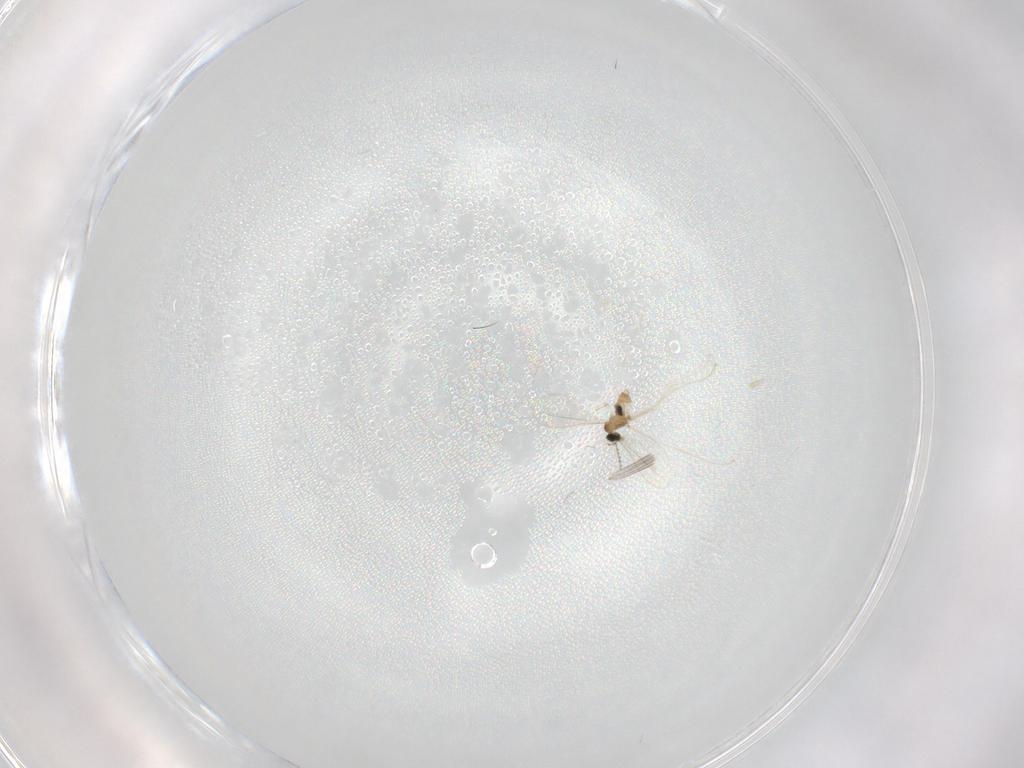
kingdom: Animalia
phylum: Arthropoda
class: Insecta
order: Diptera
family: Cecidomyiidae
